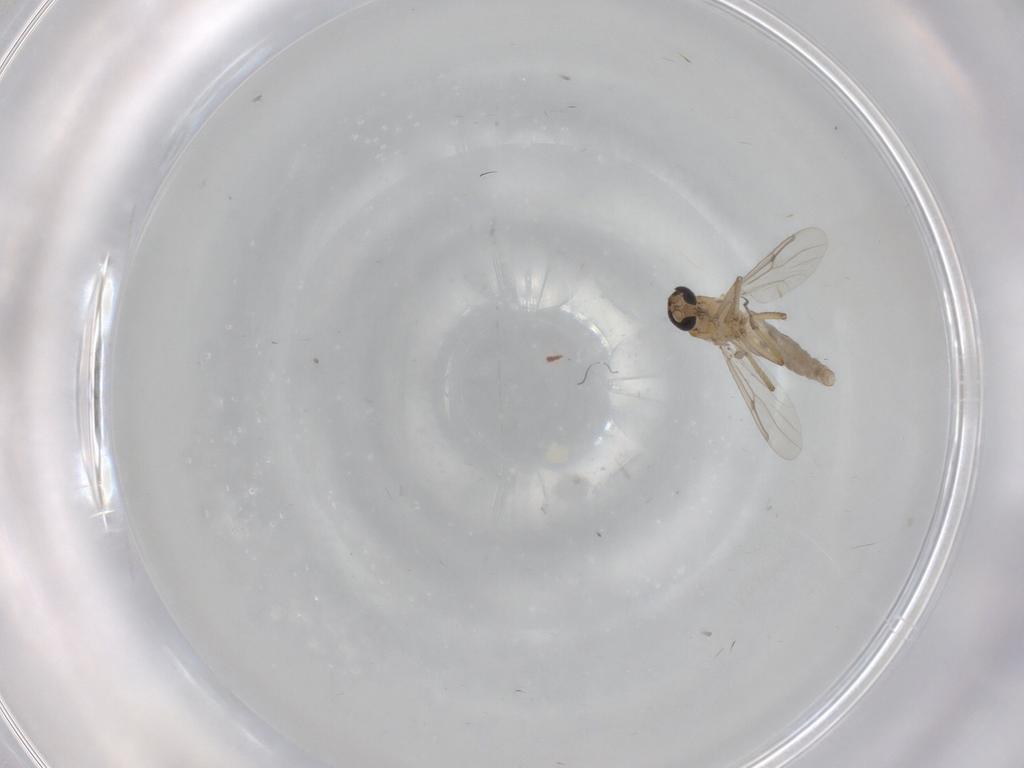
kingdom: Animalia
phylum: Arthropoda
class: Insecta
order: Diptera
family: Ceratopogonidae
